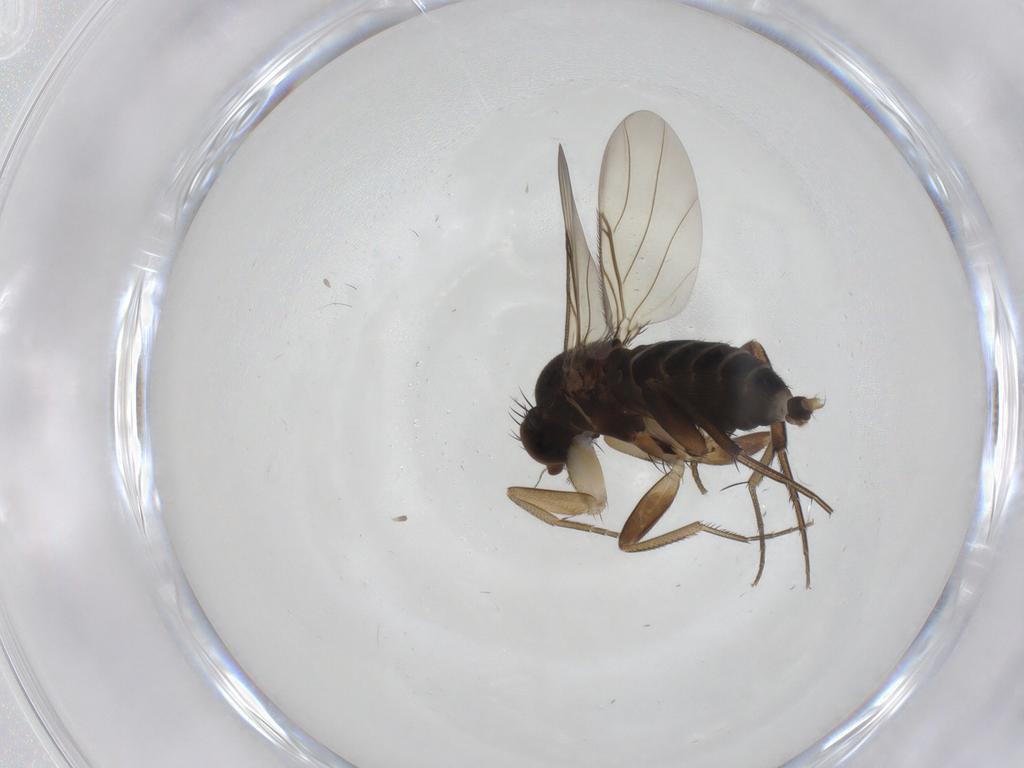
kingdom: Animalia
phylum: Arthropoda
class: Insecta
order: Diptera
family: Phoridae
